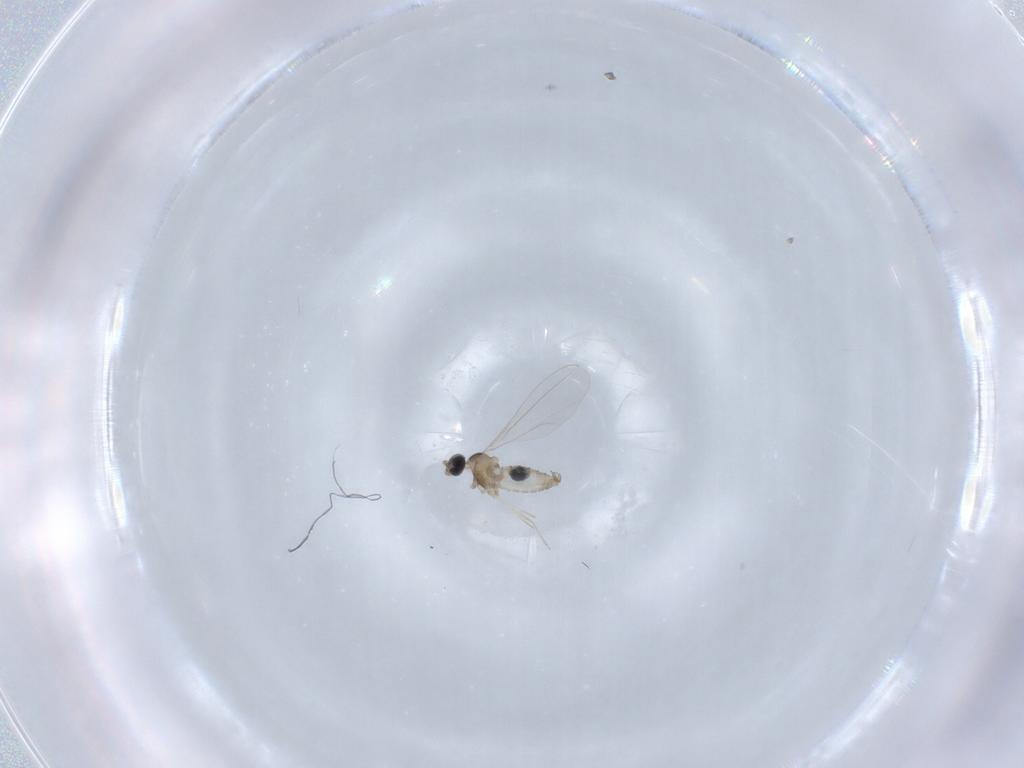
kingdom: Animalia
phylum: Arthropoda
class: Insecta
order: Diptera
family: Cecidomyiidae
